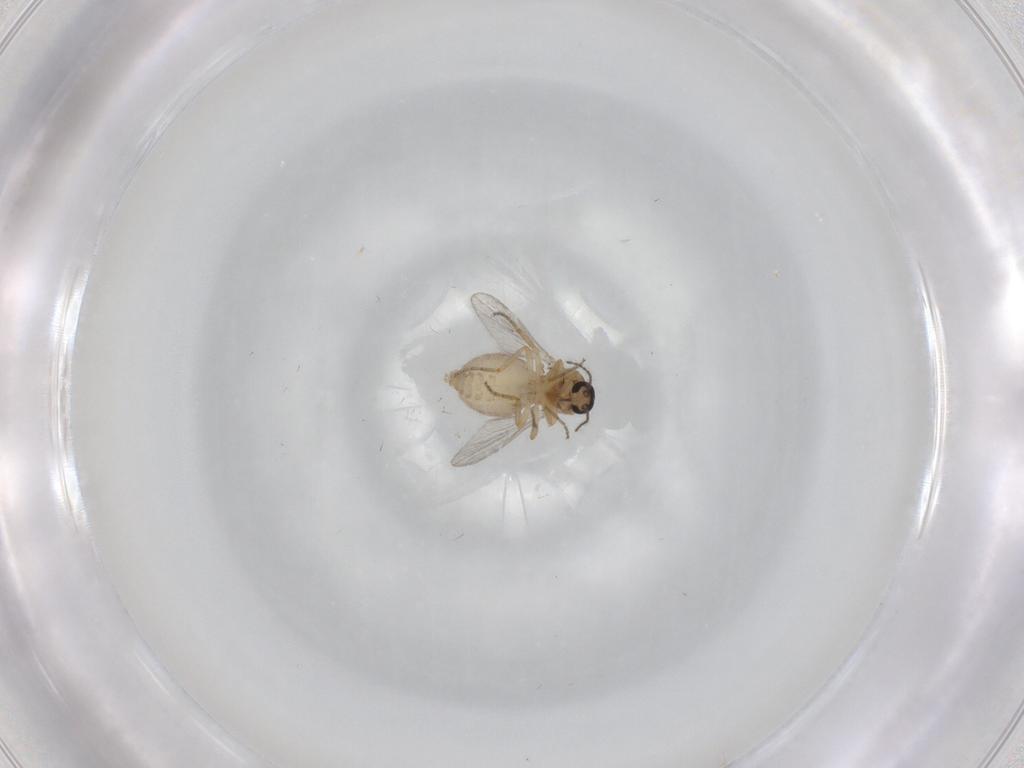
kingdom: Animalia
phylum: Arthropoda
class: Insecta
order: Diptera
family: Ceratopogonidae
